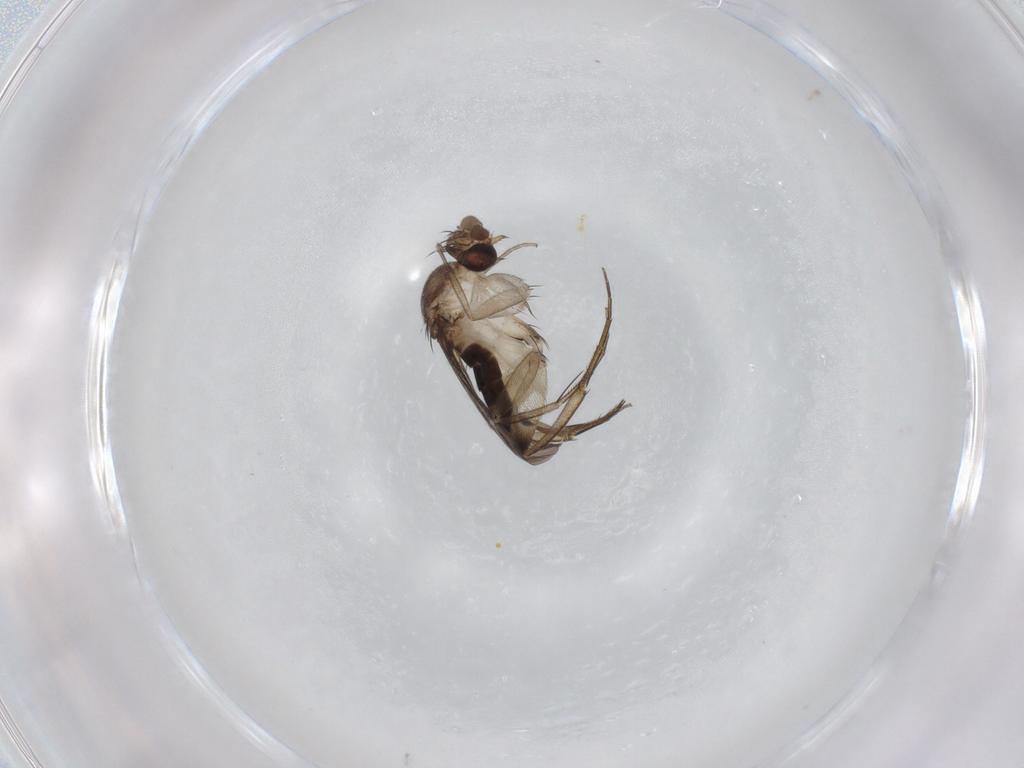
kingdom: Animalia
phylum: Arthropoda
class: Insecta
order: Diptera
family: Phoridae
